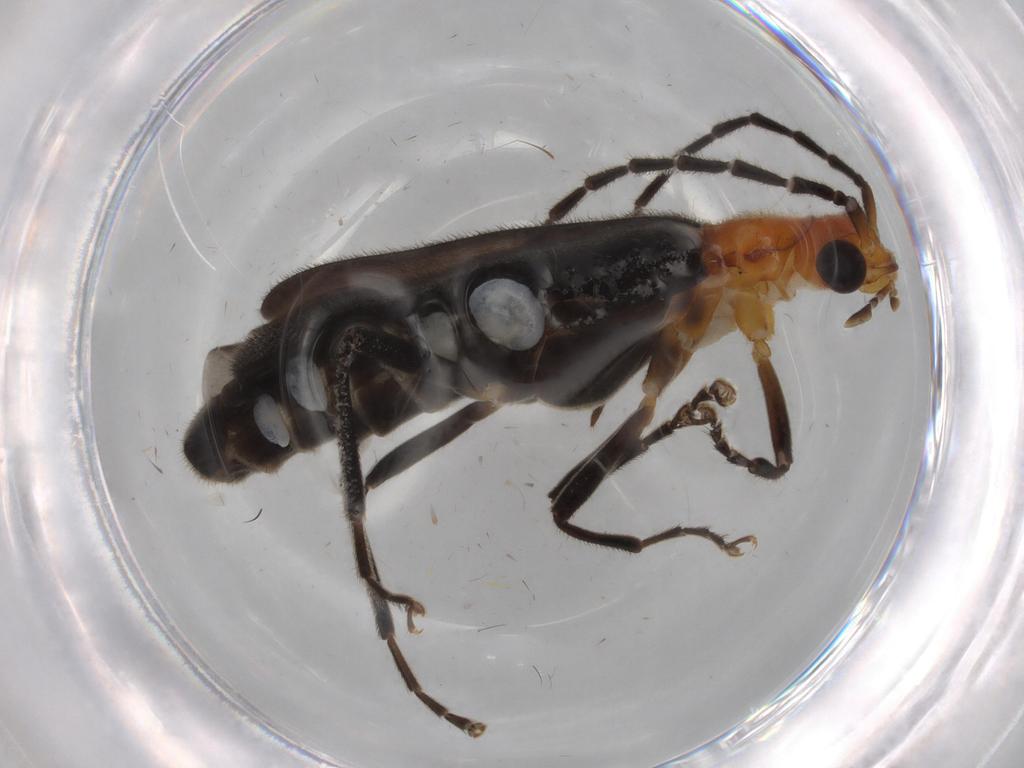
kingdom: Animalia
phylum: Arthropoda
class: Insecta
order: Coleoptera
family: Cantharidae
